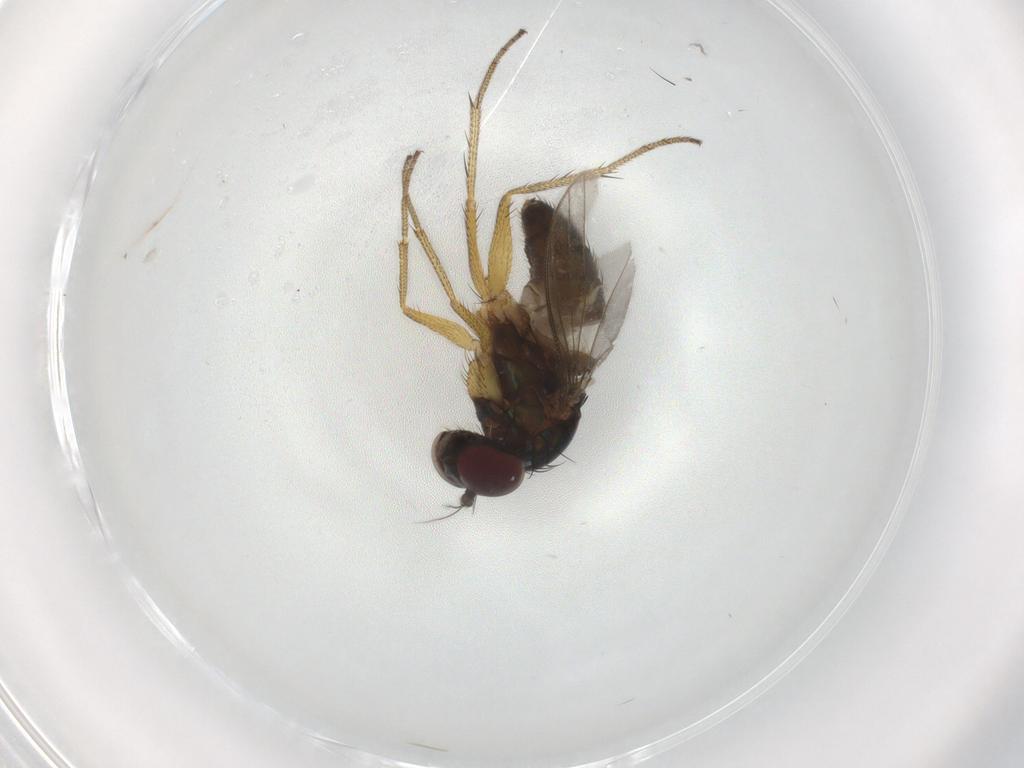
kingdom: Animalia
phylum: Arthropoda
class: Insecta
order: Diptera
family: Dolichopodidae
